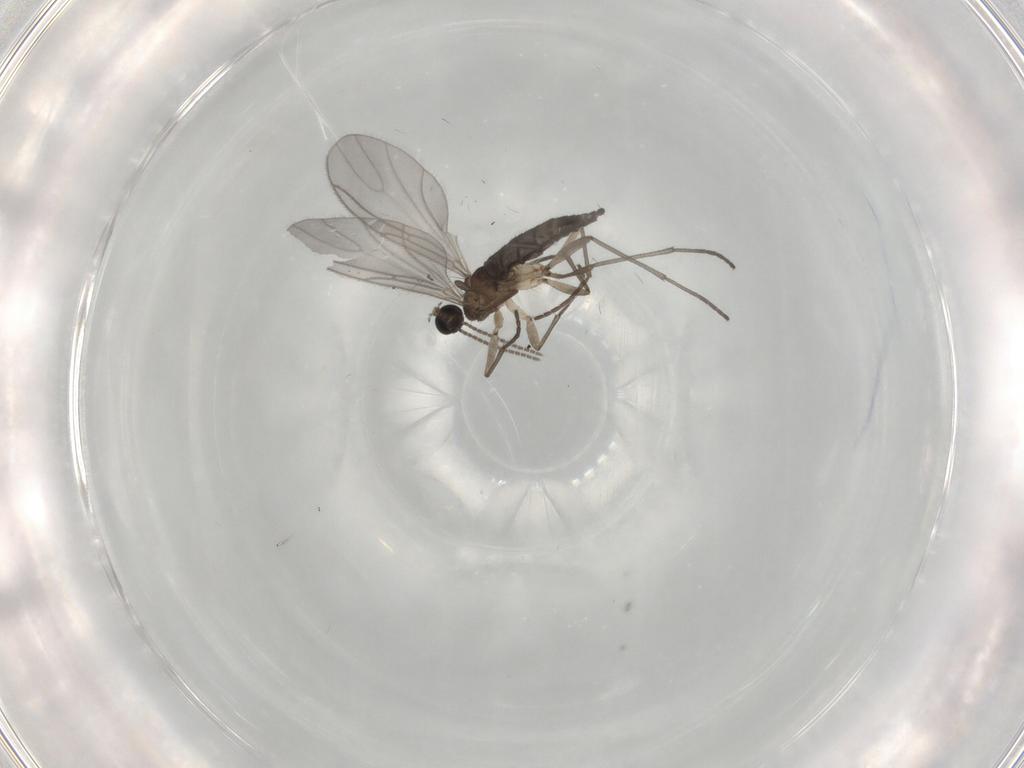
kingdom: Animalia
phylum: Arthropoda
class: Insecta
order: Diptera
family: Sciaridae
